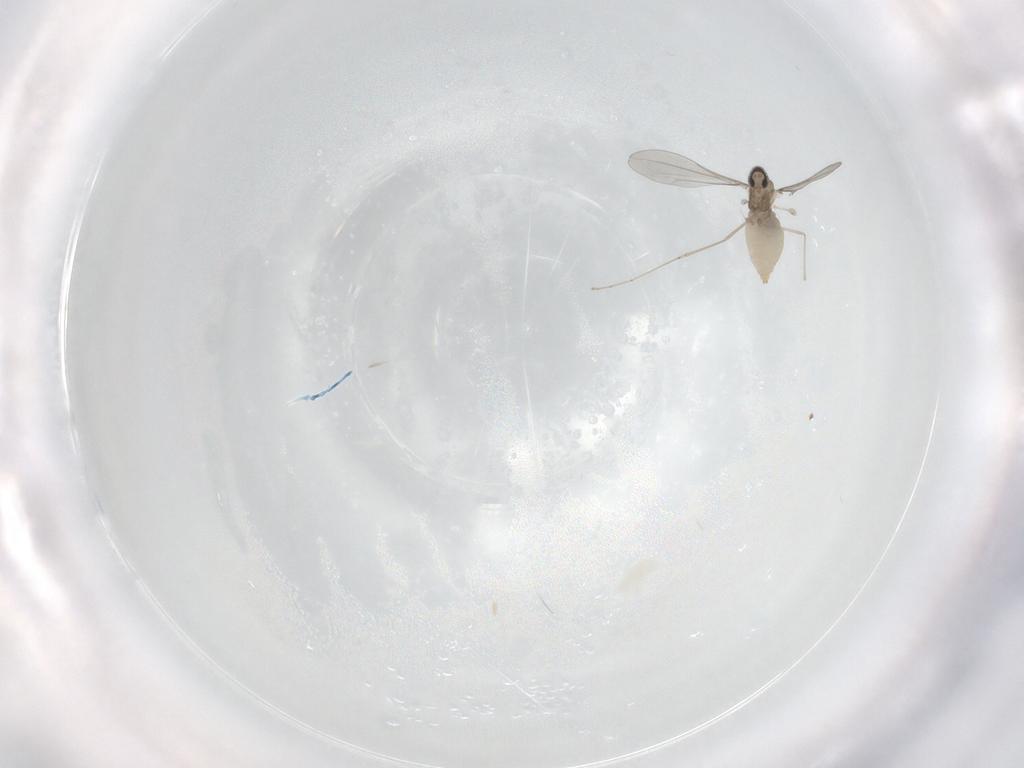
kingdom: Animalia
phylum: Arthropoda
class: Insecta
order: Diptera
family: Cecidomyiidae
